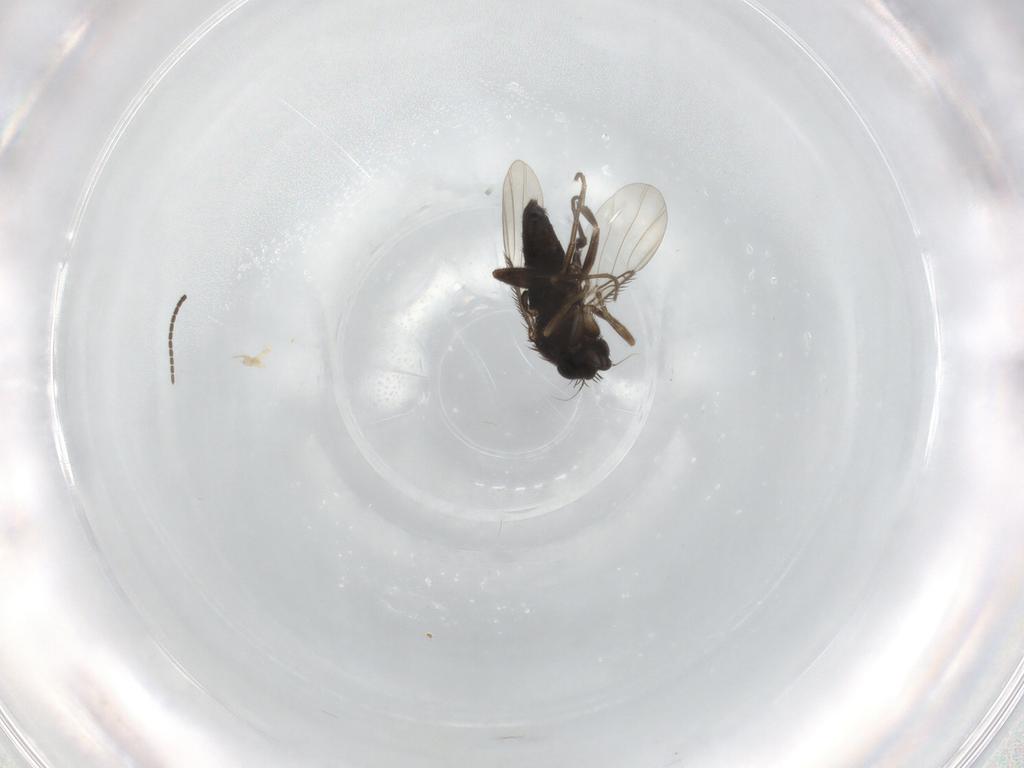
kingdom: Animalia
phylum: Arthropoda
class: Insecta
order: Diptera
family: Phoridae
